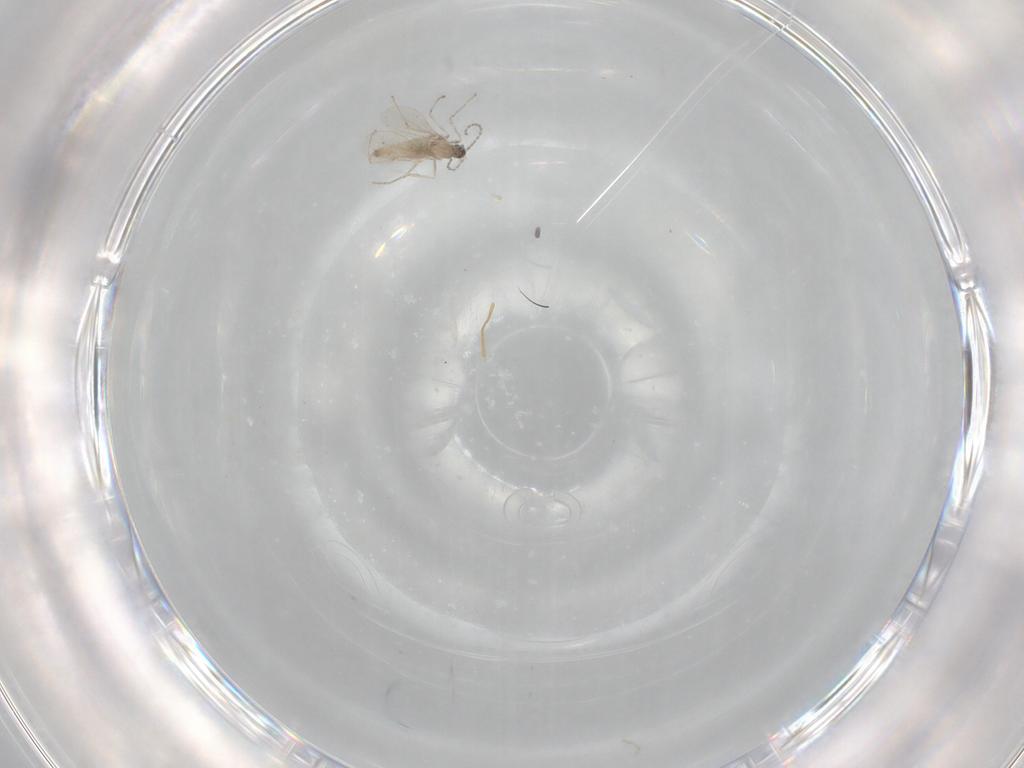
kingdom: Animalia
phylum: Arthropoda
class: Insecta
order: Diptera
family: Cecidomyiidae
